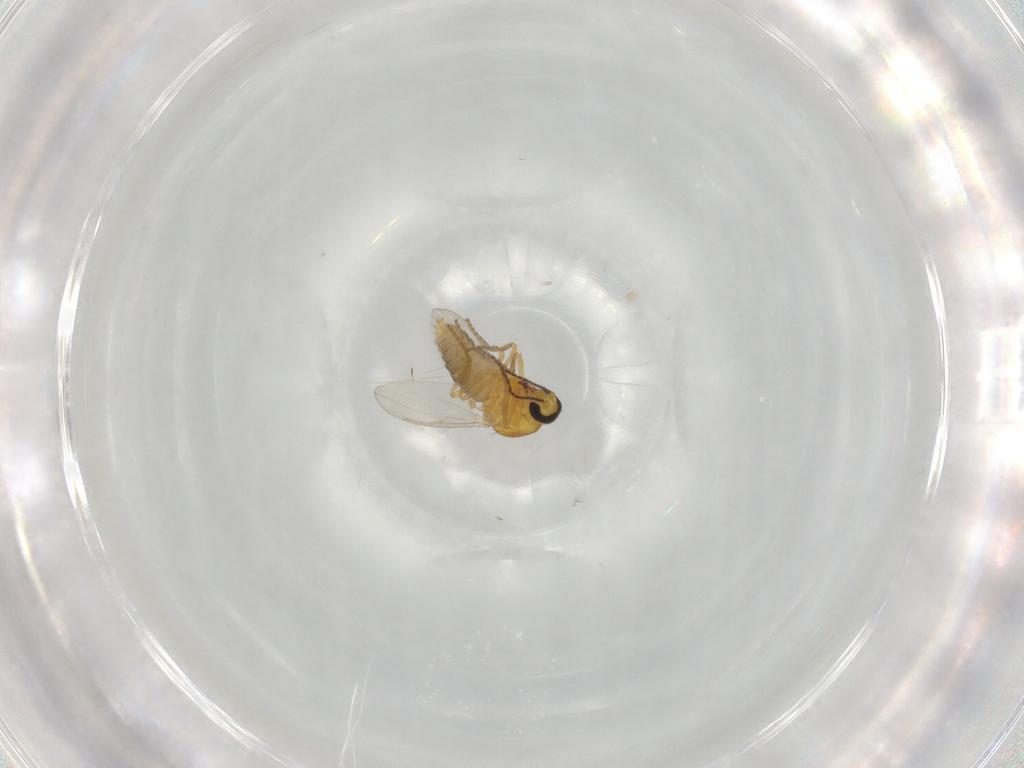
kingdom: Animalia
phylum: Arthropoda
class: Insecta
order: Diptera
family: Ceratopogonidae
